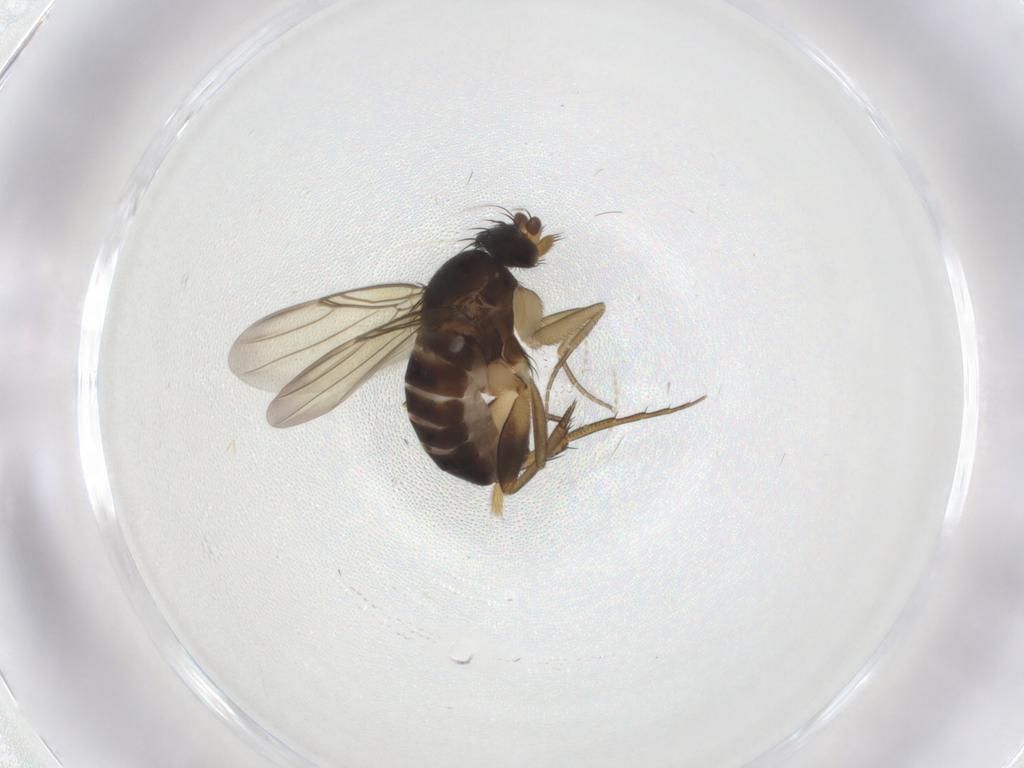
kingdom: Animalia
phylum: Arthropoda
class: Insecta
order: Diptera
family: Phoridae
